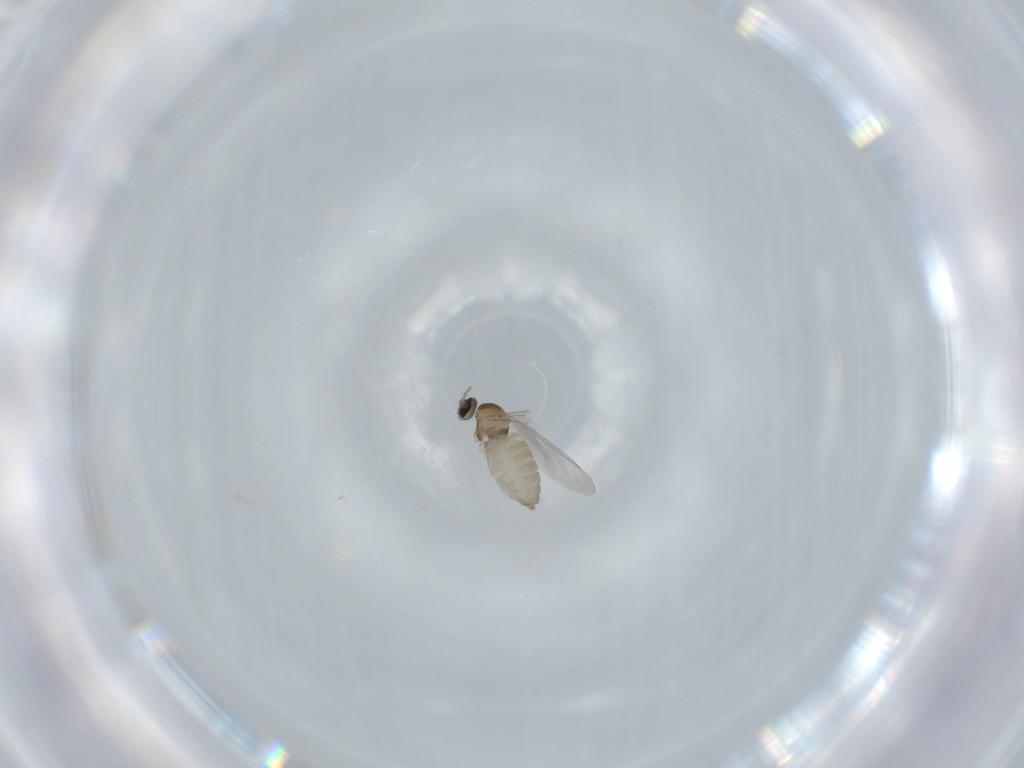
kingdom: Animalia
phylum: Arthropoda
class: Insecta
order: Diptera
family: Cecidomyiidae
